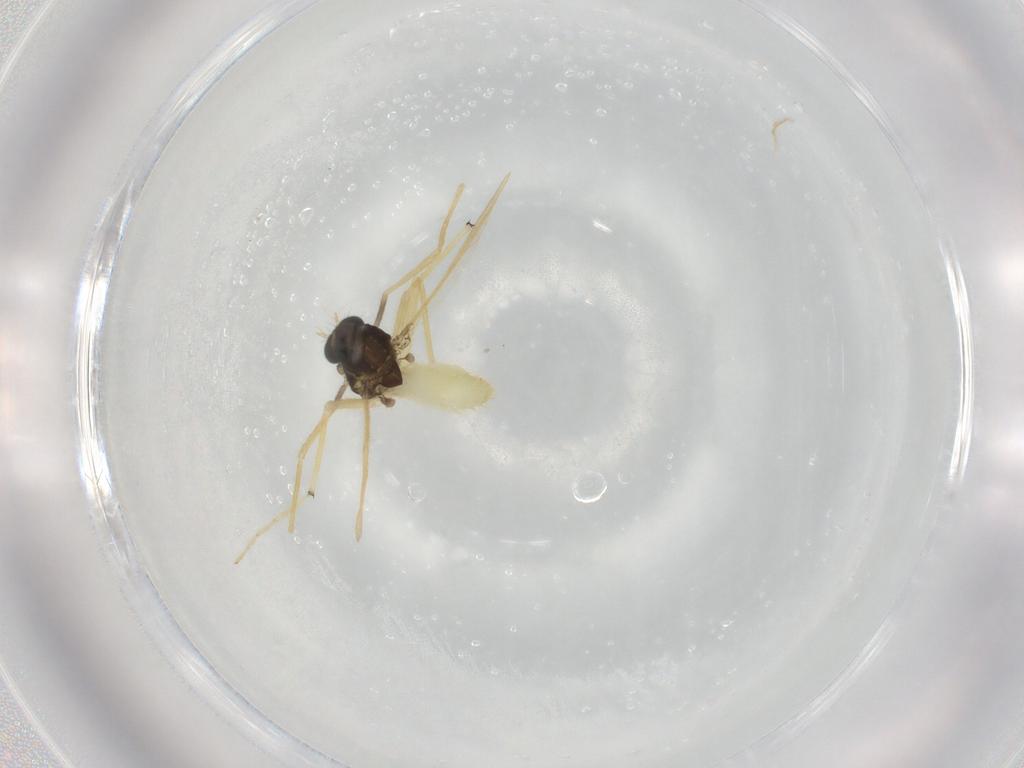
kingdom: Animalia
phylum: Arthropoda
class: Insecta
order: Diptera
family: Chironomidae
